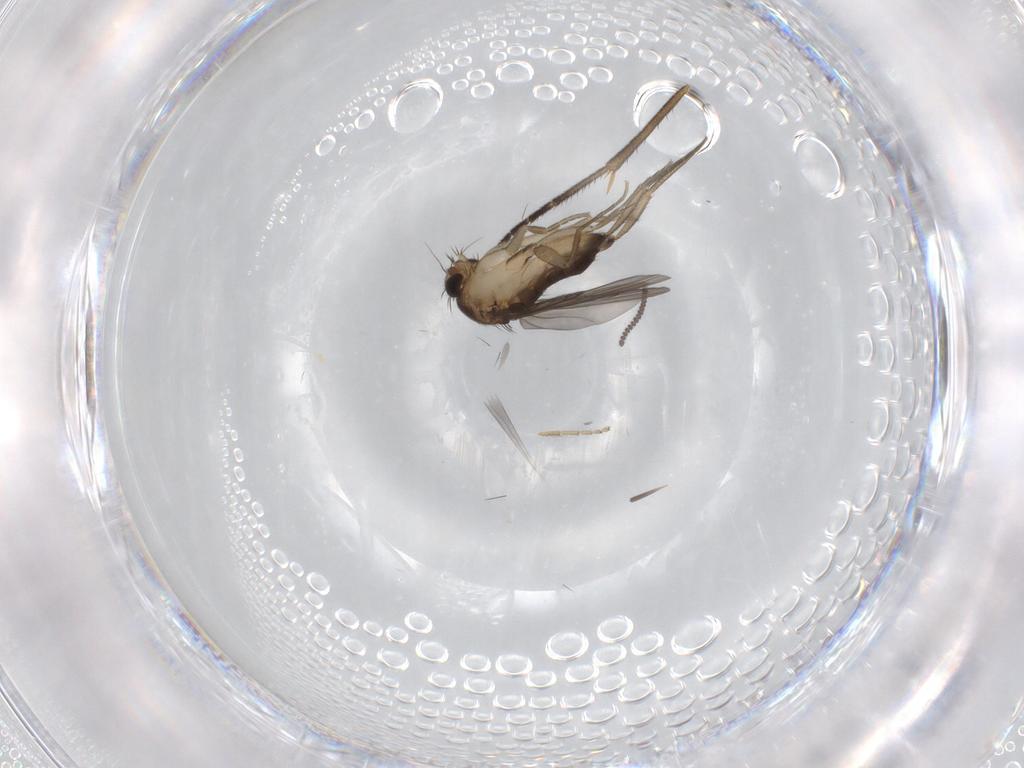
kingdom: Animalia
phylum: Arthropoda
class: Insecta
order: Diptera
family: Phoridae
